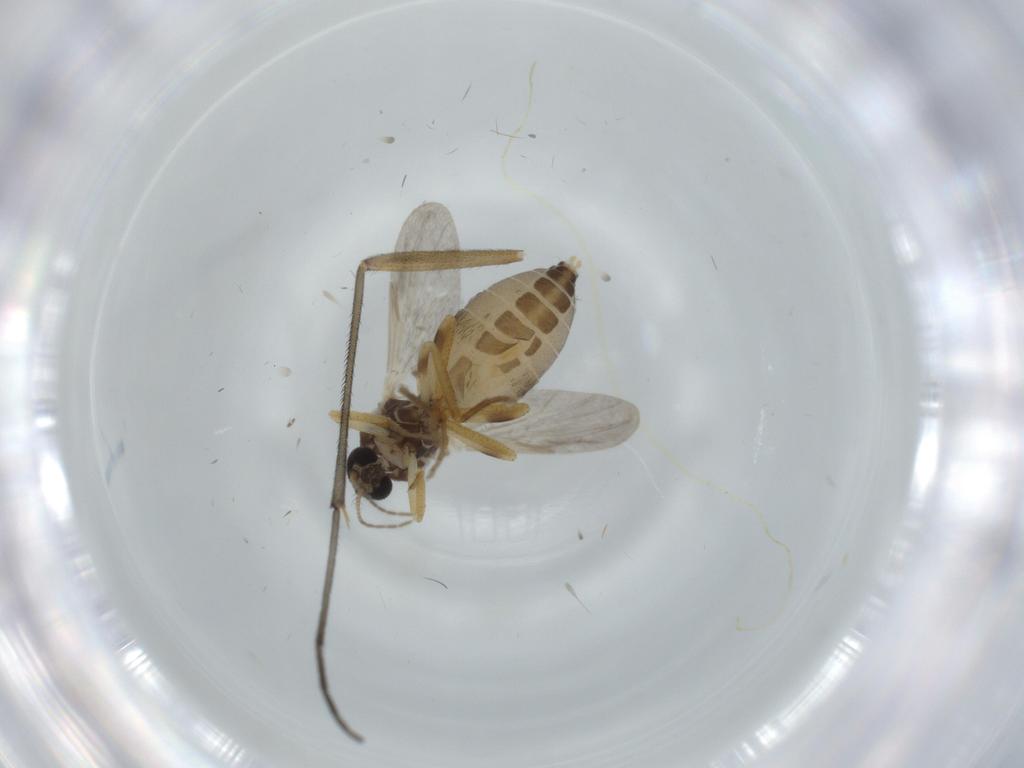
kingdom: Animalia
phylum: Arthropoda
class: Insecta
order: Diptera
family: Ceratopogonidae
